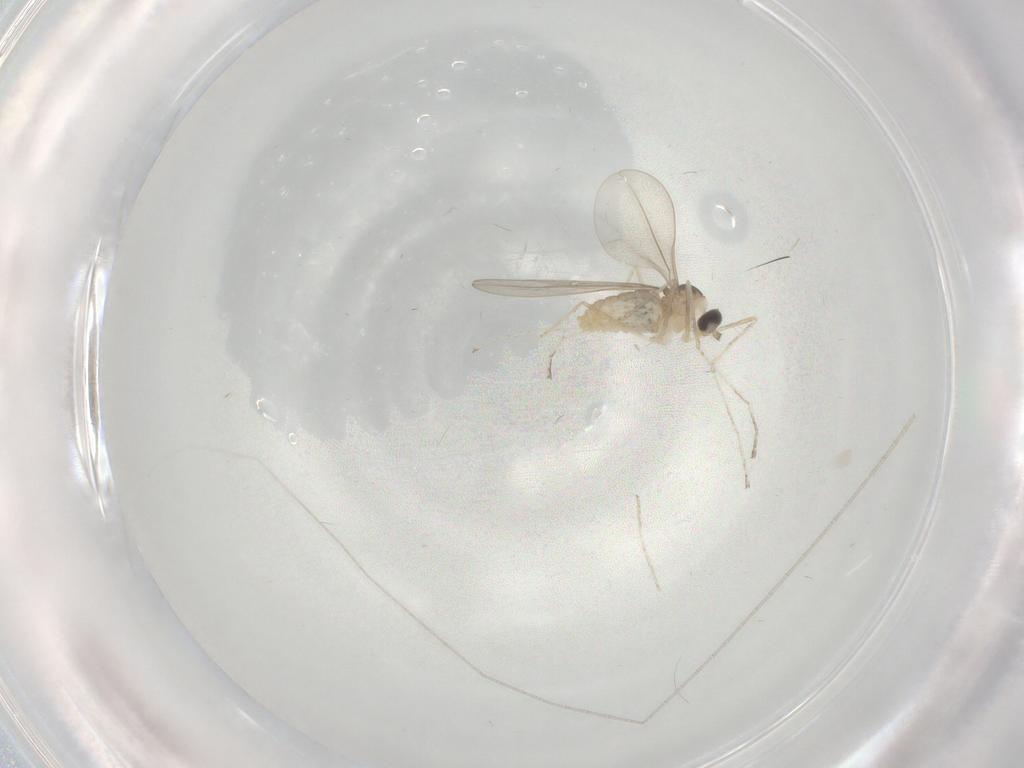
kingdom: Animalia
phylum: Arthropoda
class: Insecta
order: Diptera
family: Cecidomyiidae
